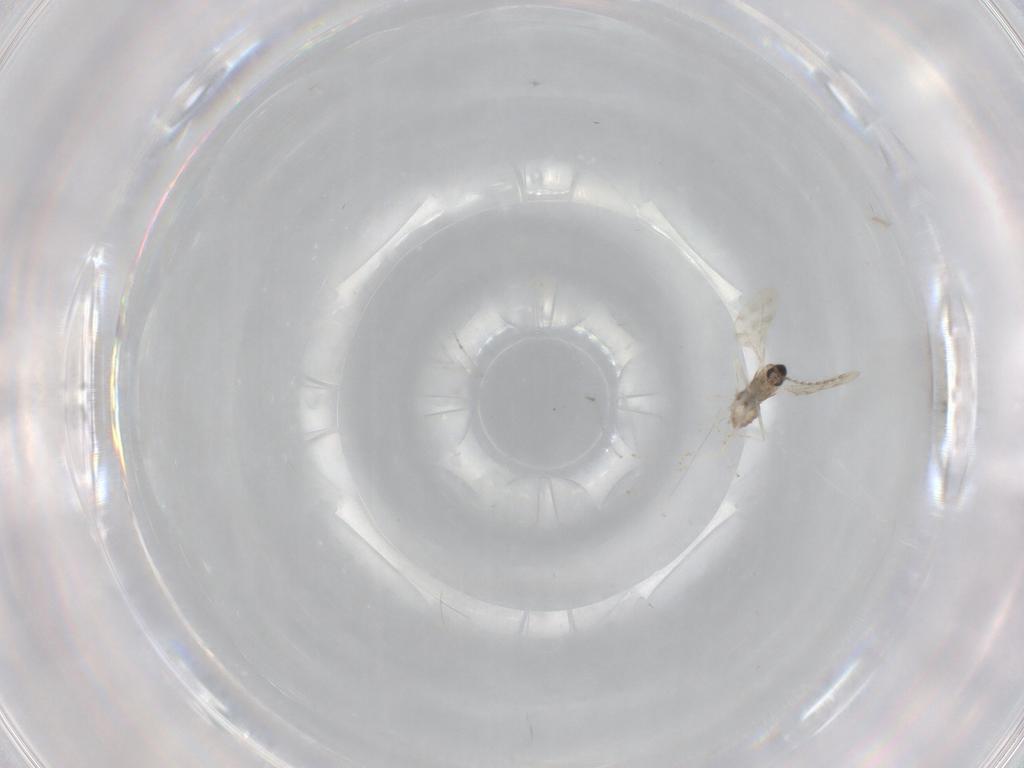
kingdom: Animalia
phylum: Arthropoda
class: Insecta
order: Diptera
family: Cecidomyiidae
